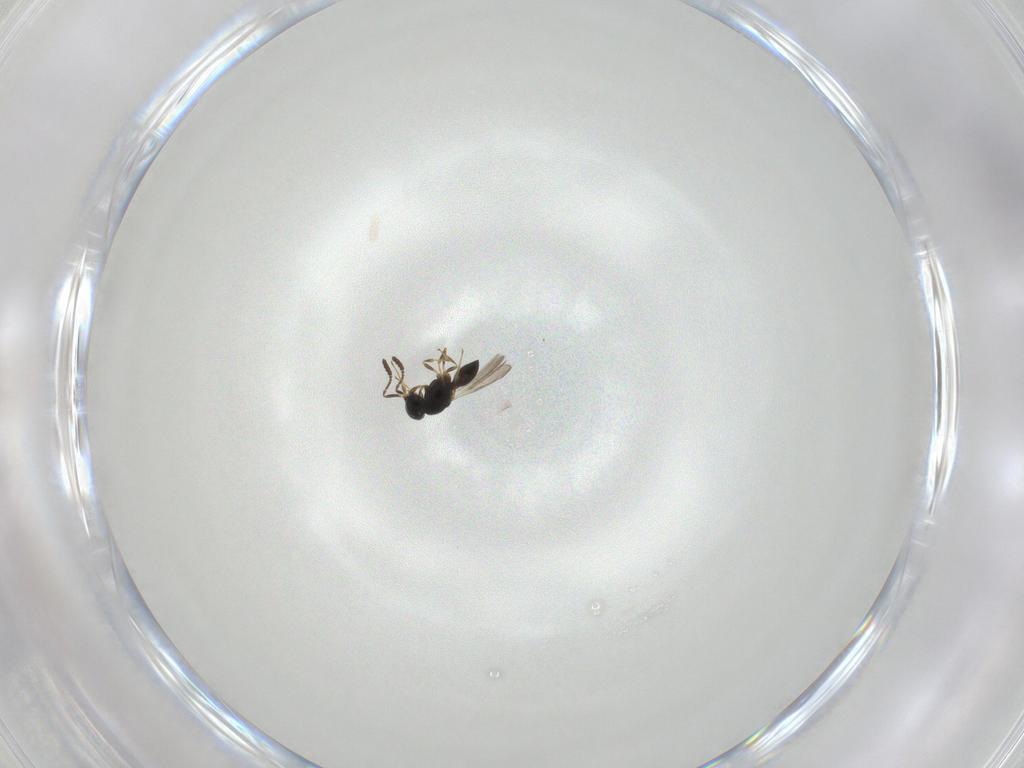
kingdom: Animalia
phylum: Arthropoda
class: Insecta
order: Hymenoptera
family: Scelionidae
